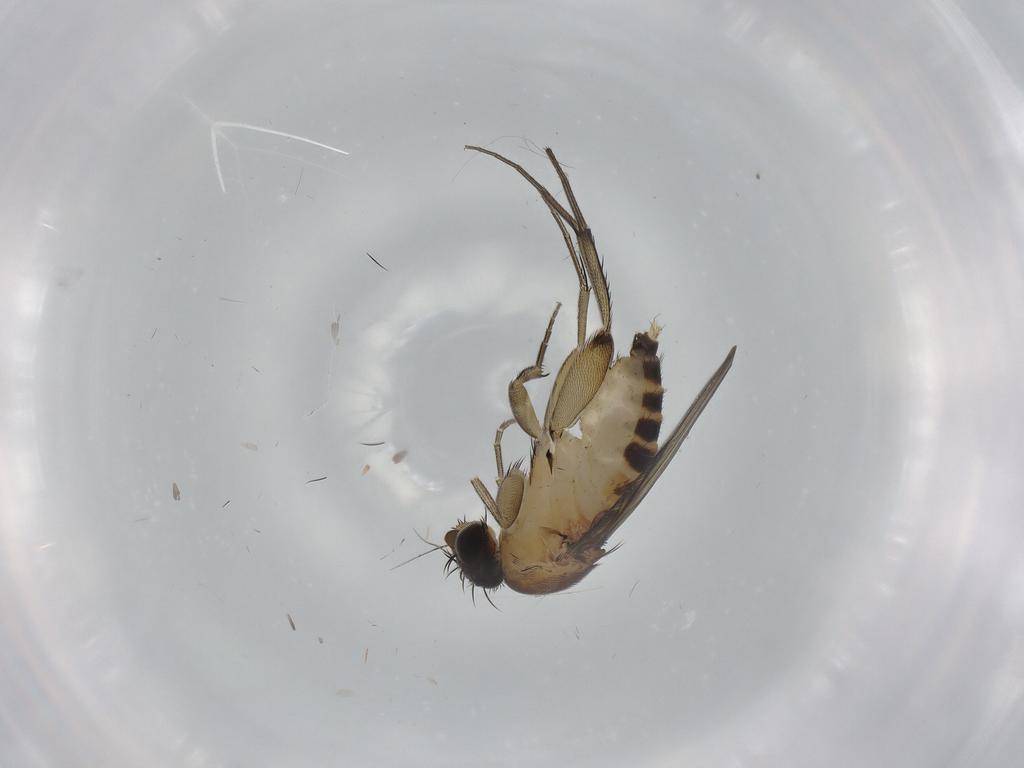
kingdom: Animalia
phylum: Arthropoda
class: Insecta
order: Diptera
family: Phoridae
